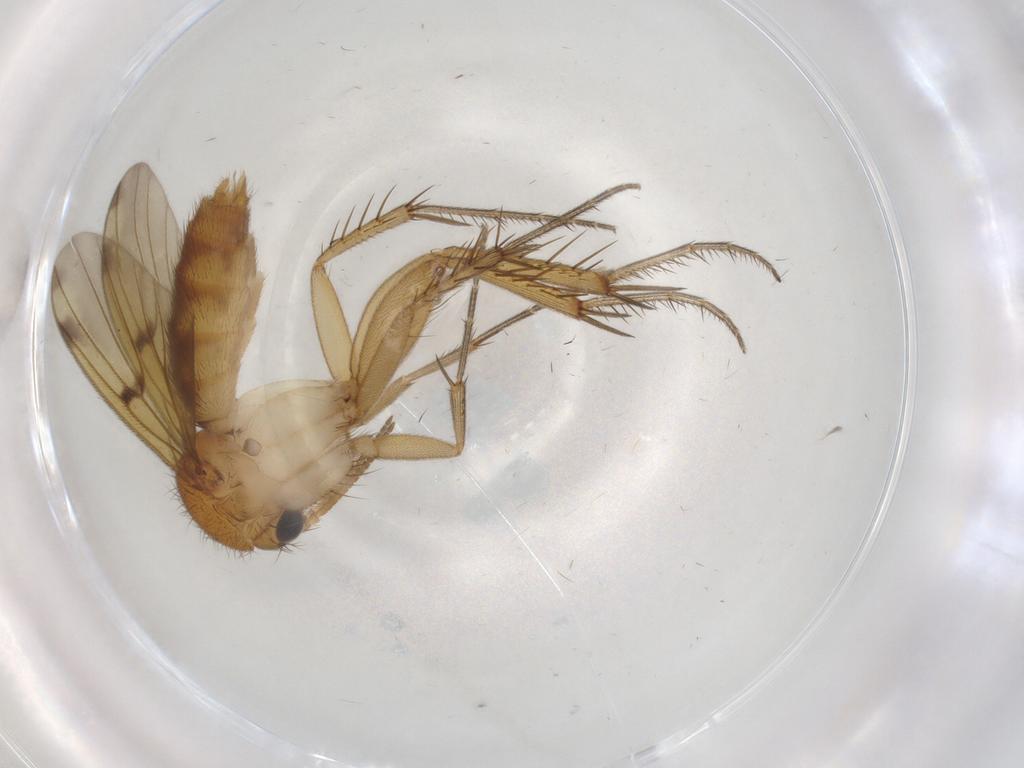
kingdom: Animalia
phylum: Arthropoda
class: Insecta
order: Diptera
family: Mycetophilidae
